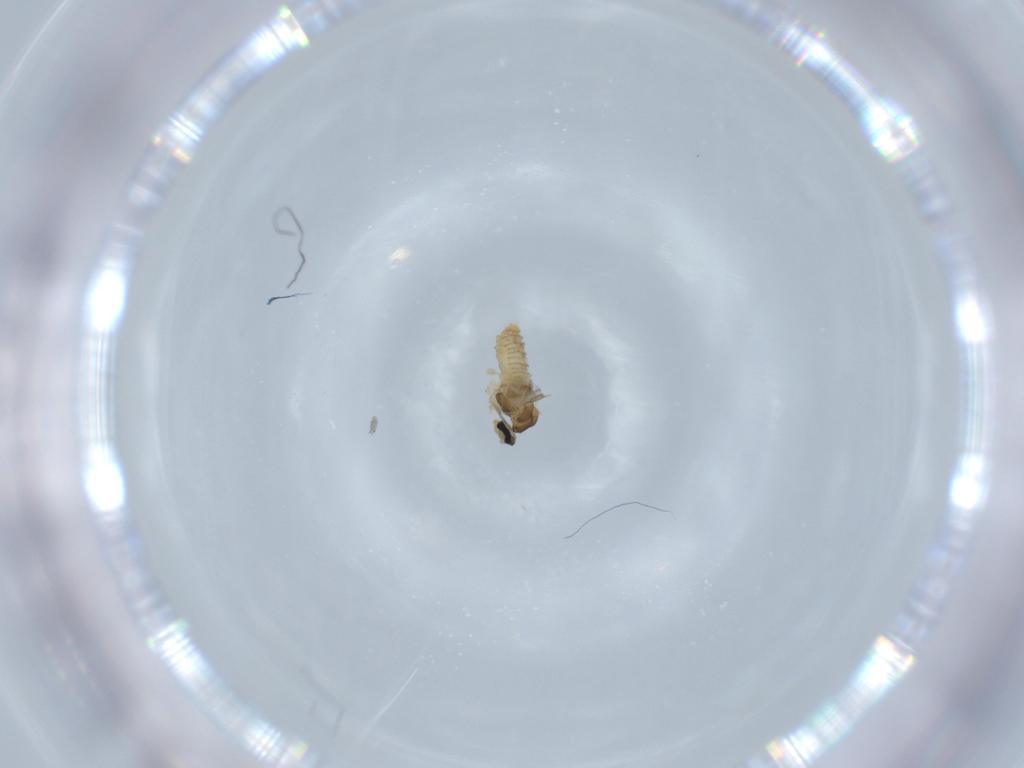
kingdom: Animalia
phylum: Arthropoda
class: Insecta
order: Diptera
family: Cecidomyiidae
